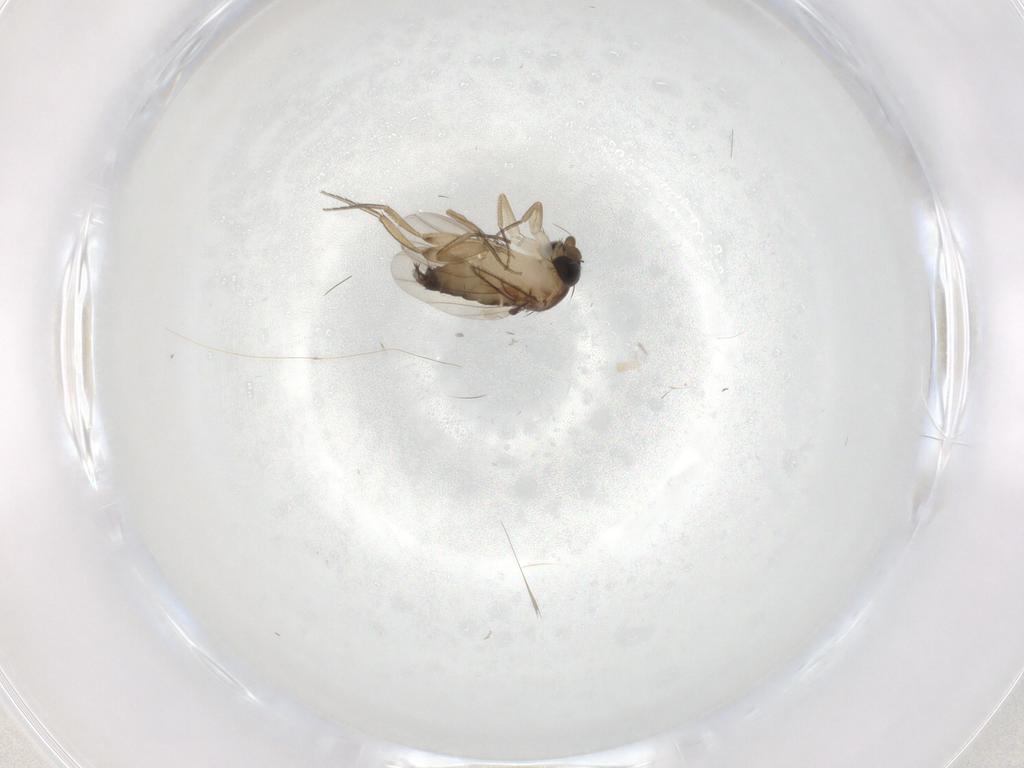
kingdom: Animalia
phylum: Arthropoda
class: Insecta
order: Diptera
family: Phoridae
